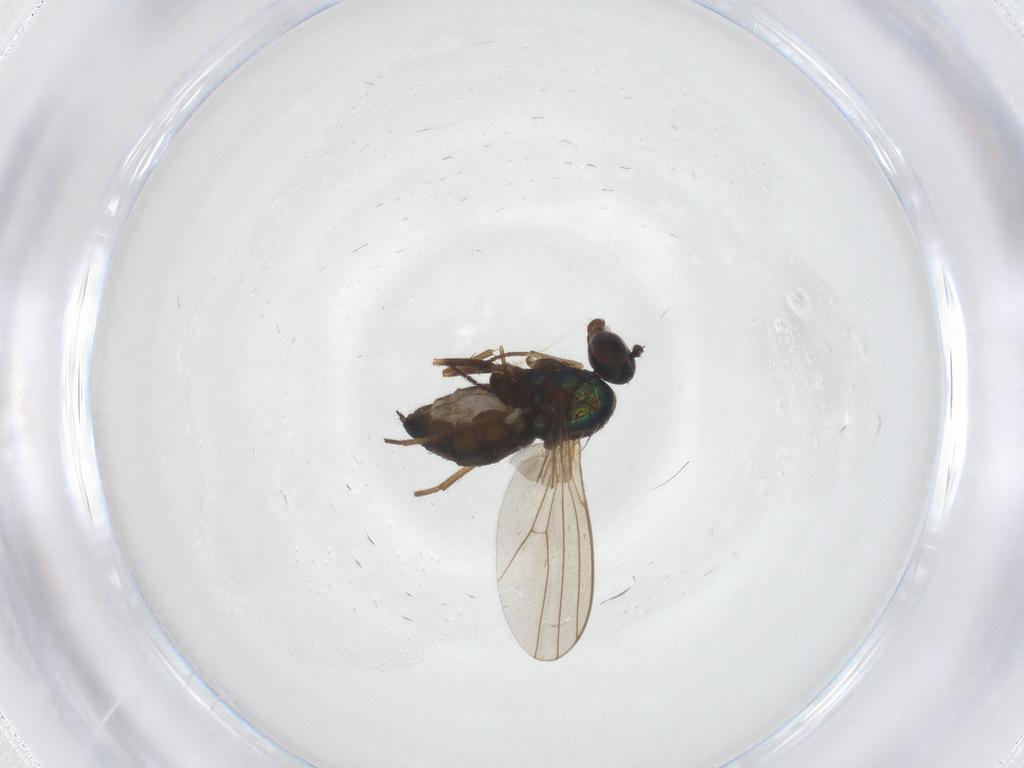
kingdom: Animalia
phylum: Arthropoda
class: Insecta
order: Diptera
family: Dolichopodidae
